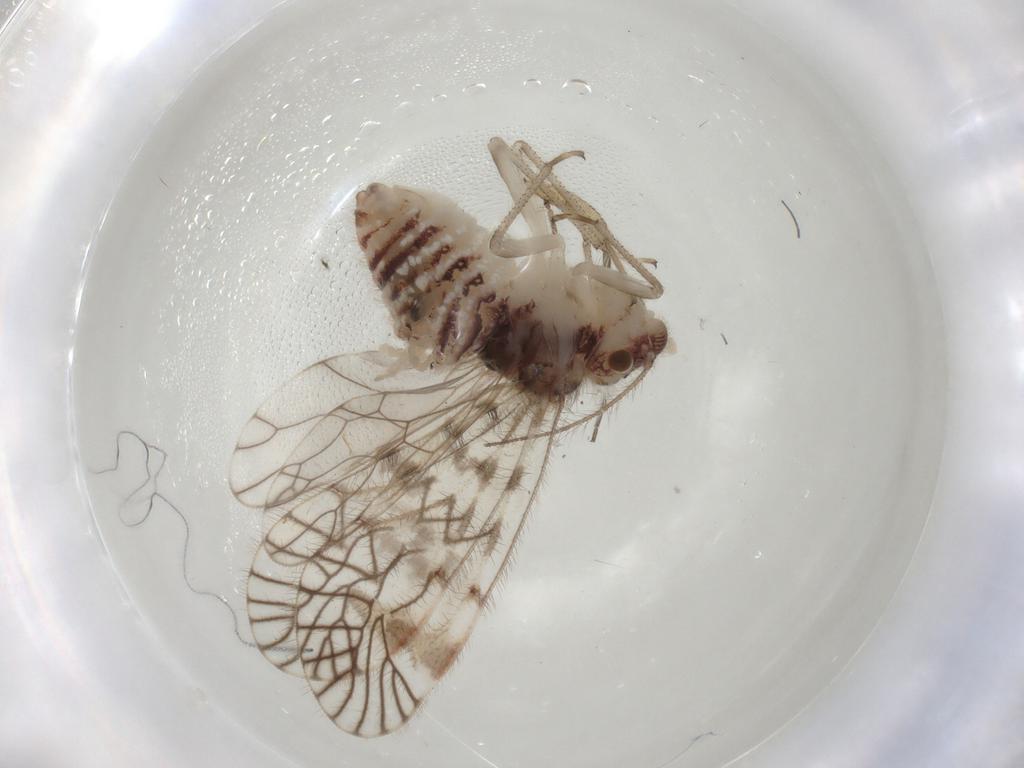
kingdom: Animalia
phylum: Arthropoda
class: Insecta
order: Psocodea
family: Amphipsocidae
